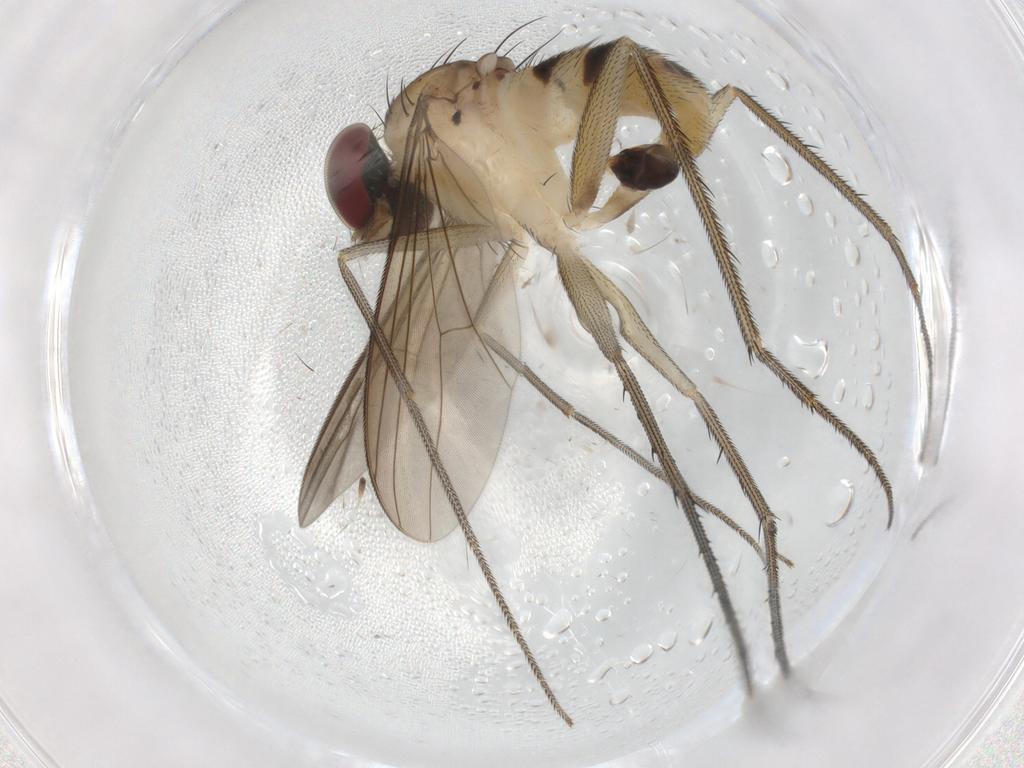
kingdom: Animalia
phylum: Arthropoda
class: Insecta
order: Diptera
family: Dolichopodidae
